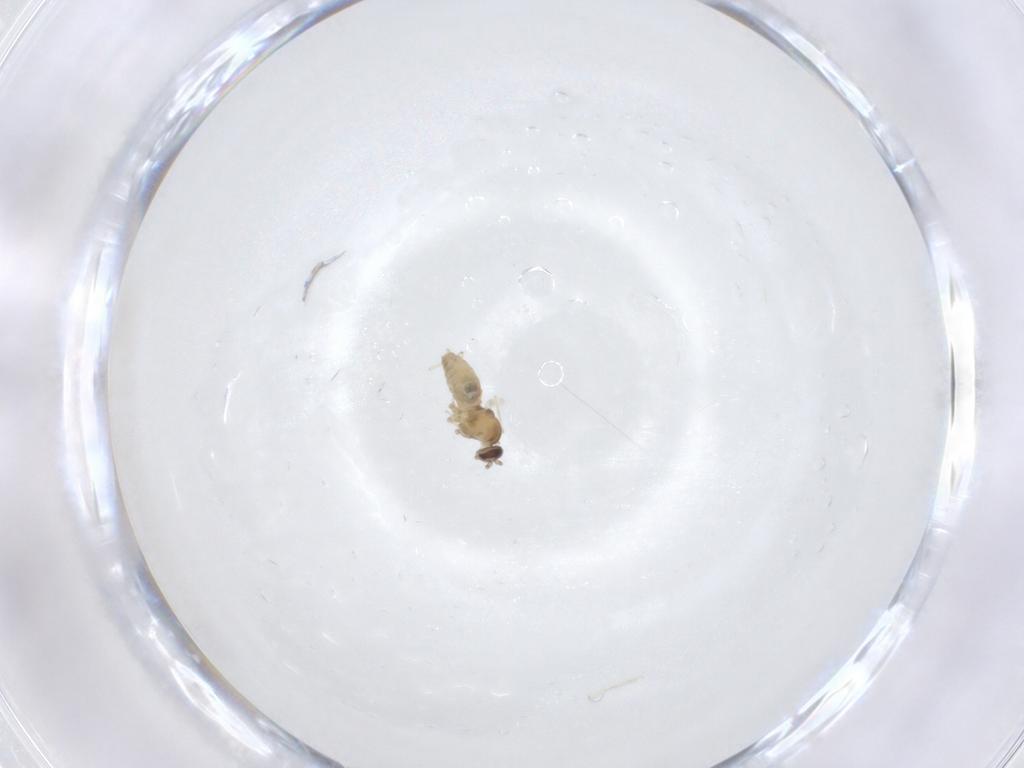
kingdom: Animalia
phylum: Arthropoda
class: Insecta
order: Diptera
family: Cecidomyiidae
